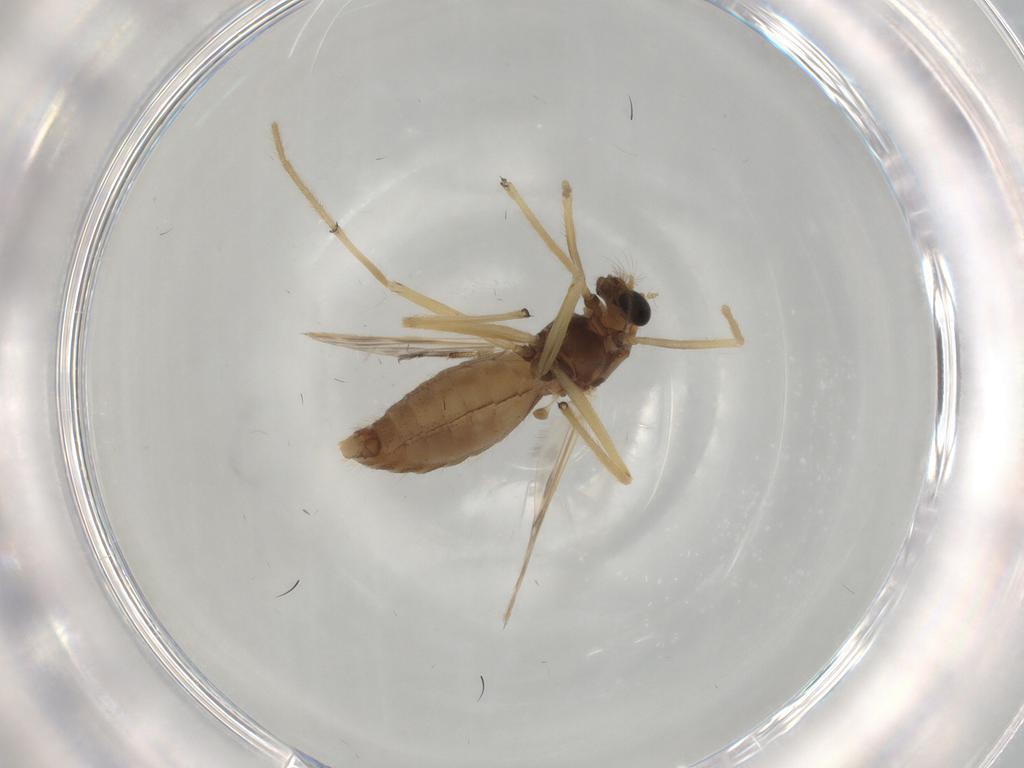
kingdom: Animalia
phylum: Arthropoda
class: Insecta
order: Diptera
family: Chironomidae
